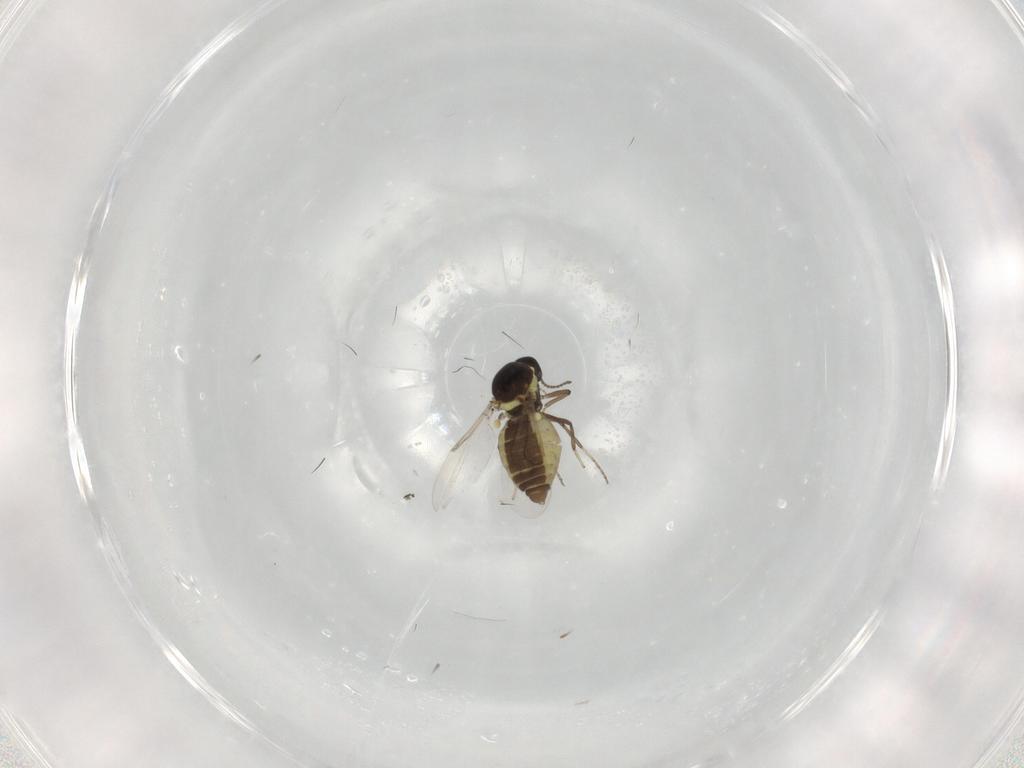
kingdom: Animalia
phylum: Arthropoda
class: Insecta
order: Diptera
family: Ceratopogonidae
